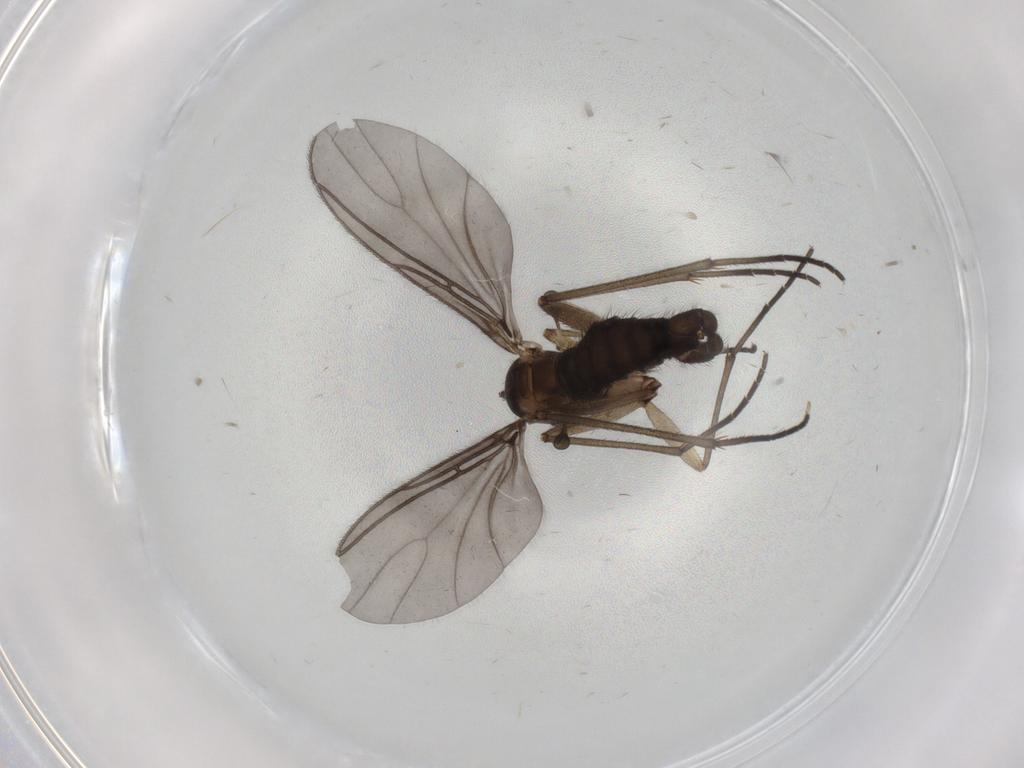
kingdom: Animalia
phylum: Arthropoda
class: Insecta
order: Diptera
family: Sciaridae
